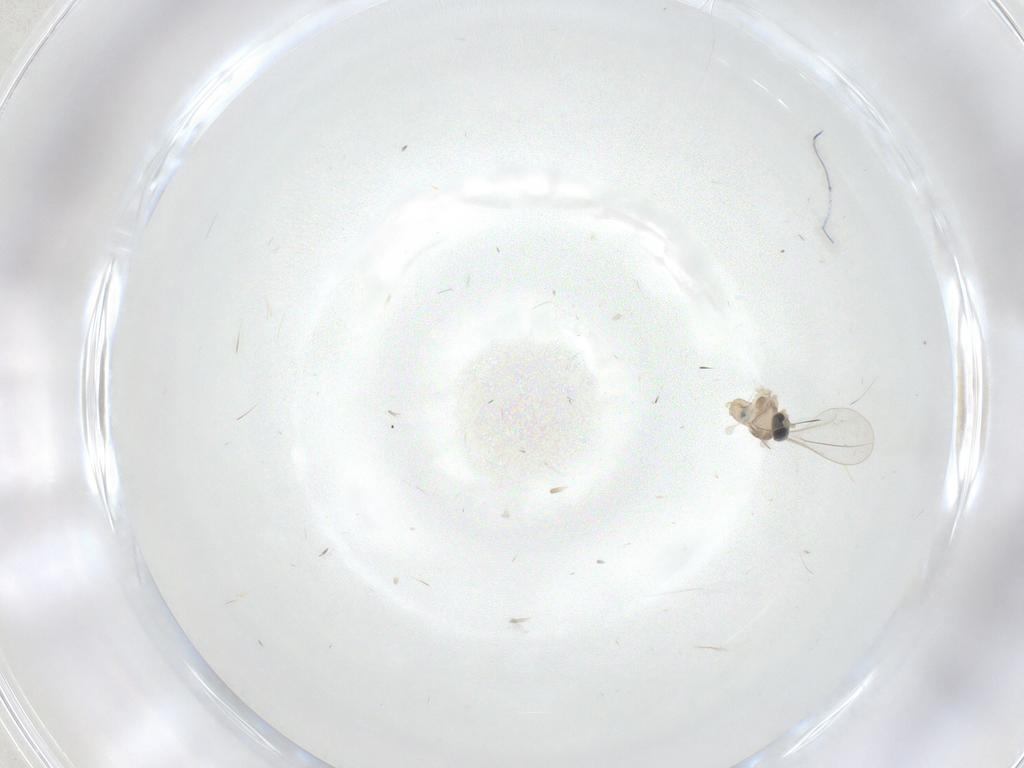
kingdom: Animalia
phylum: Arthropoda
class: Insecta
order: Diptera
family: Cecidomyiidae
